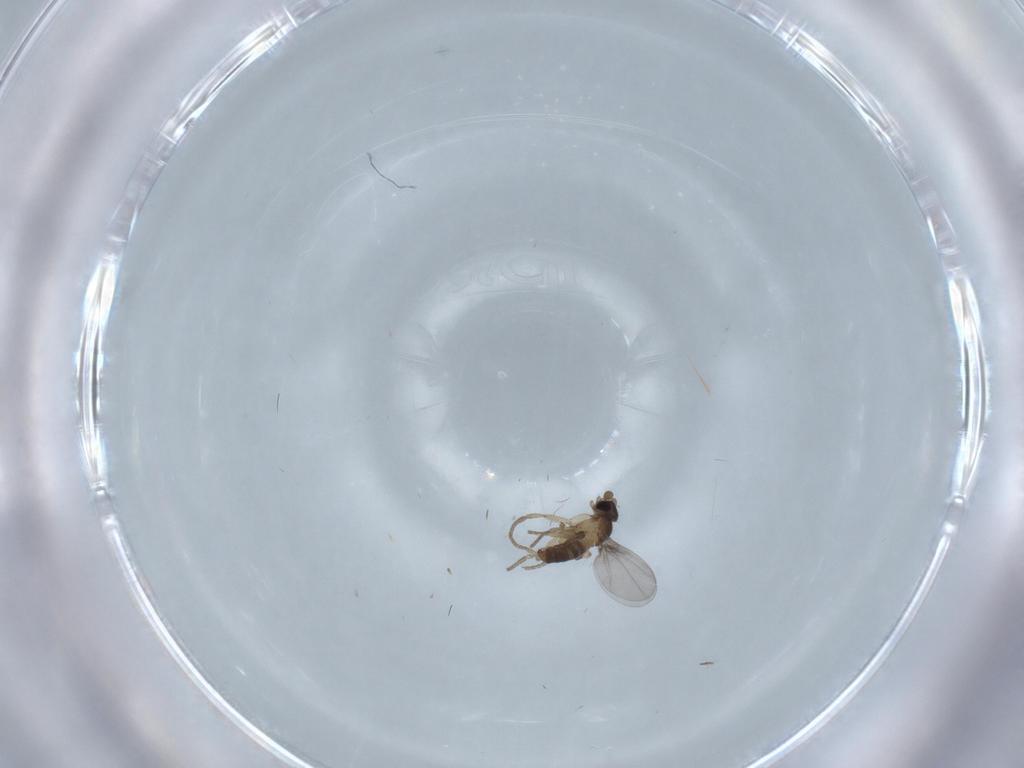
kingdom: Animalia
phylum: Arthropoda
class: Insecta
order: Diptera
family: Phoridae
